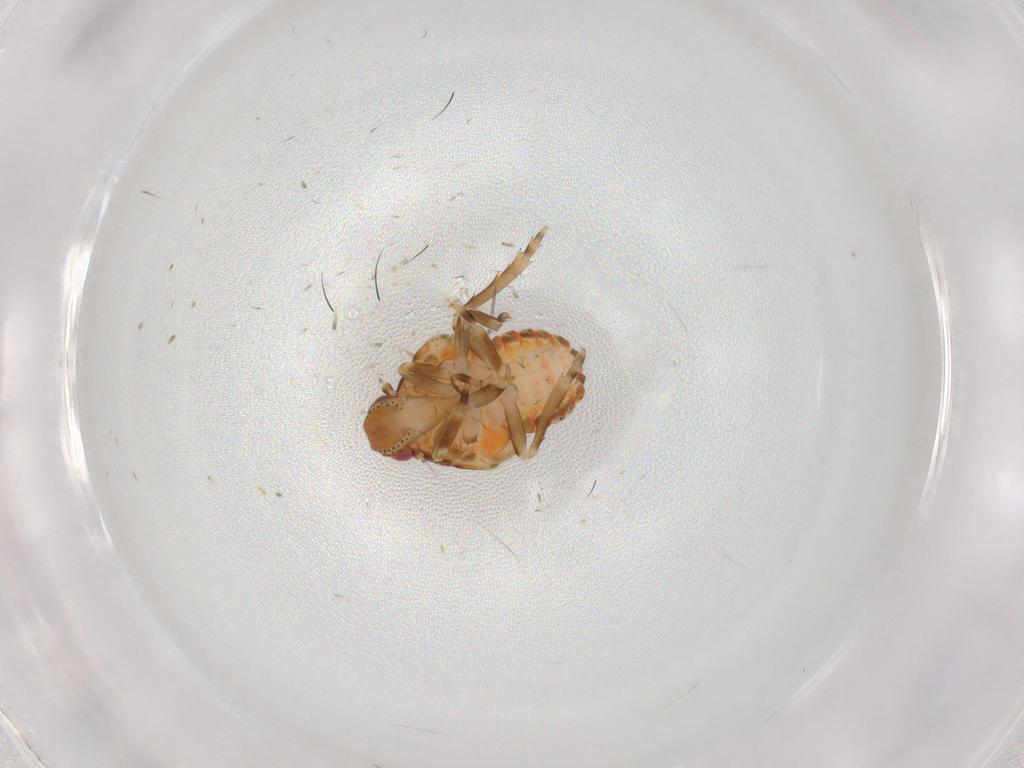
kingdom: Animalia
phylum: Arthropoda
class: Insecta
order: Hemiptera
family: Flatidae
